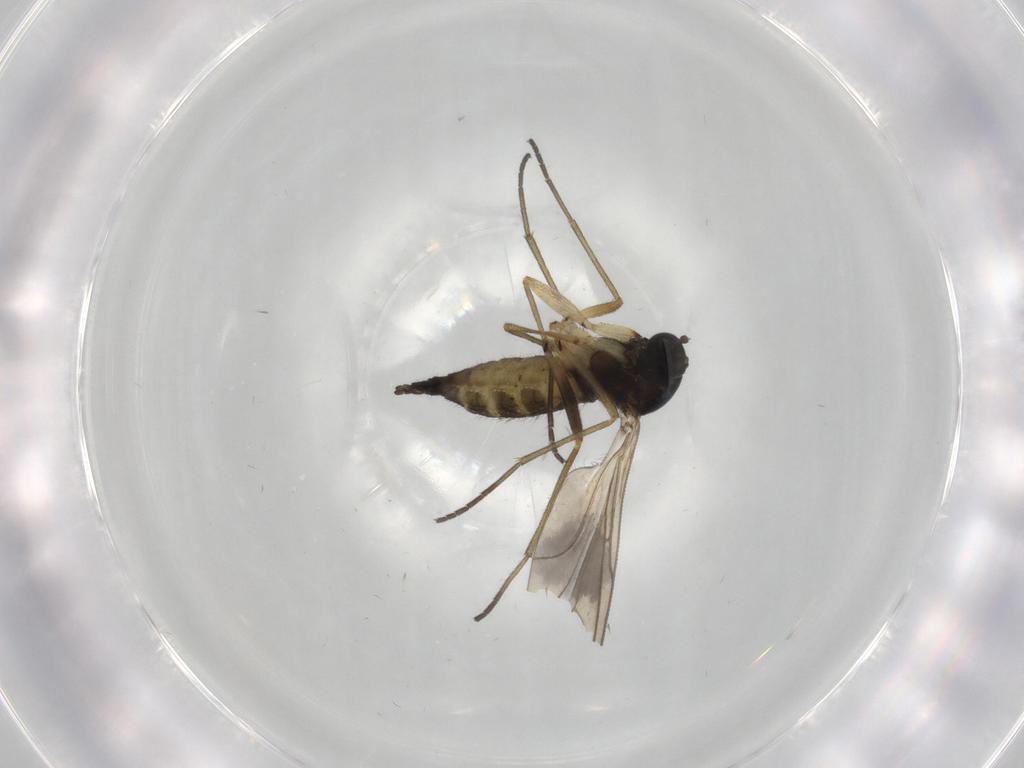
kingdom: Animalia
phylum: Arthropoda
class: Insecta
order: Diptera
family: Sciaridae
